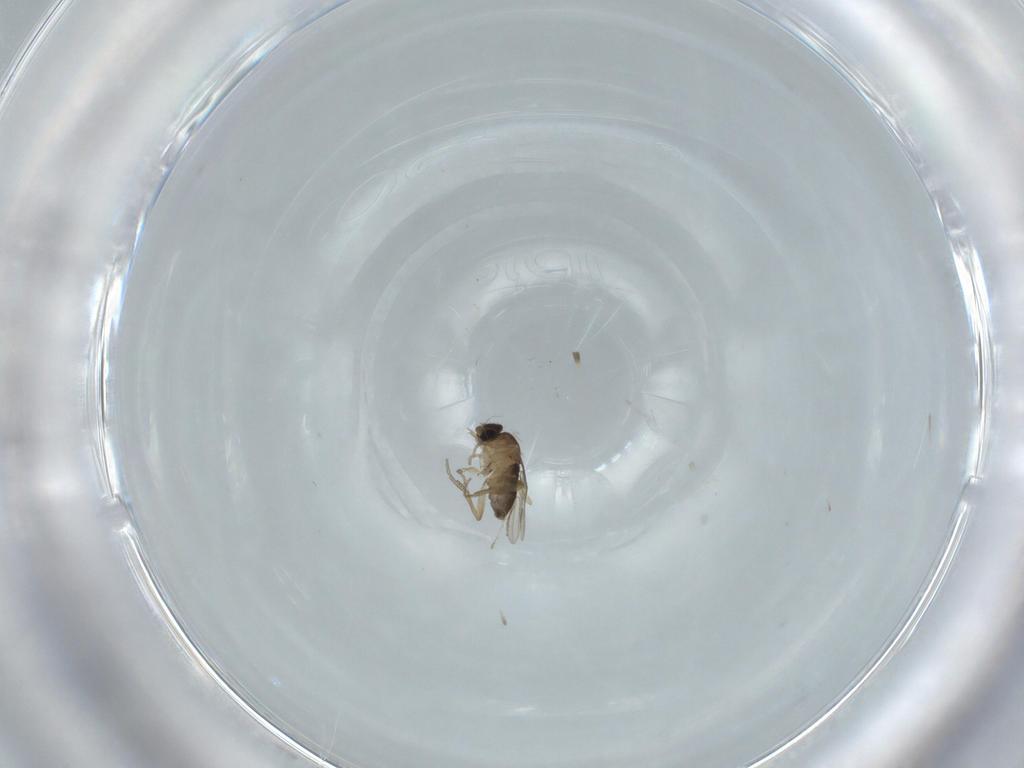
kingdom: Animalia
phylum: Arthropoda
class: Insecta
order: Diptera
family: Phoridae
